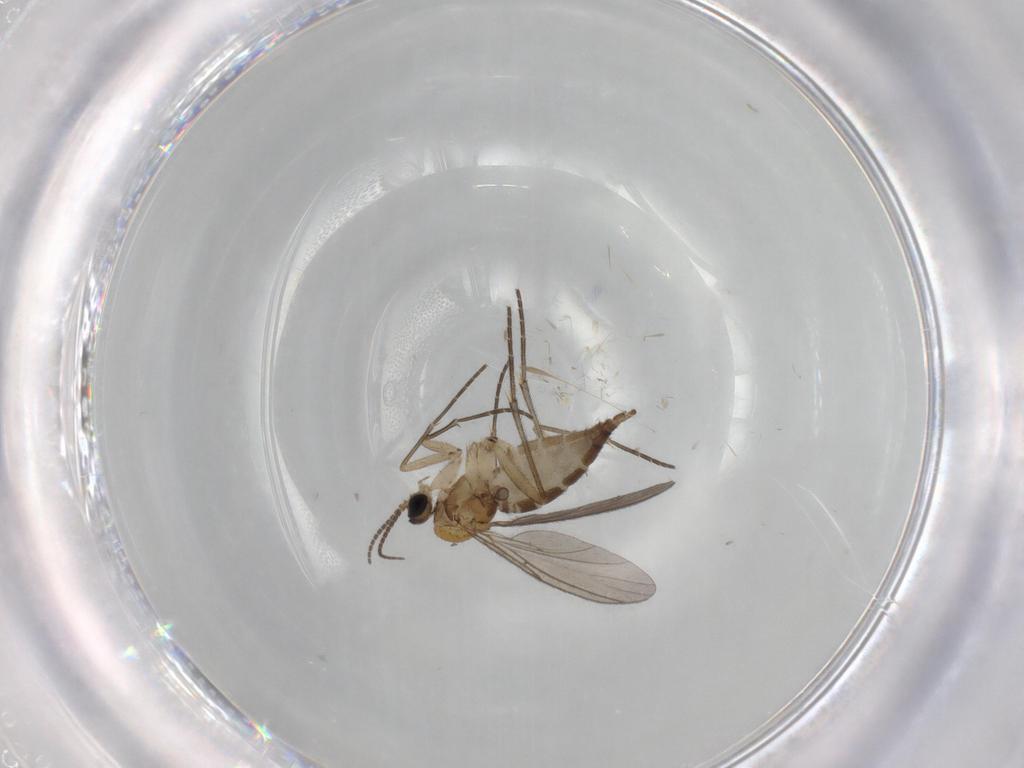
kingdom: Animalia
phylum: Arthropoda
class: Insecta
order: Diptera
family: Sciaridae
